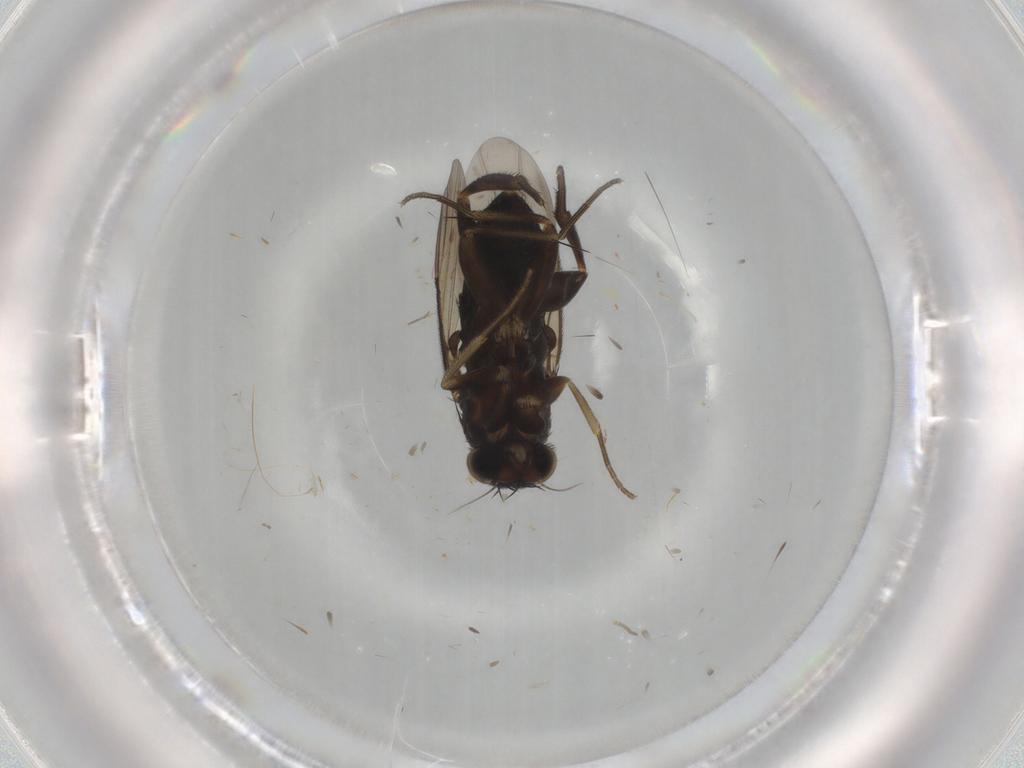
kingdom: Animalia
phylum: Arthropoda
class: Insecta
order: Diptera
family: Phoridae
